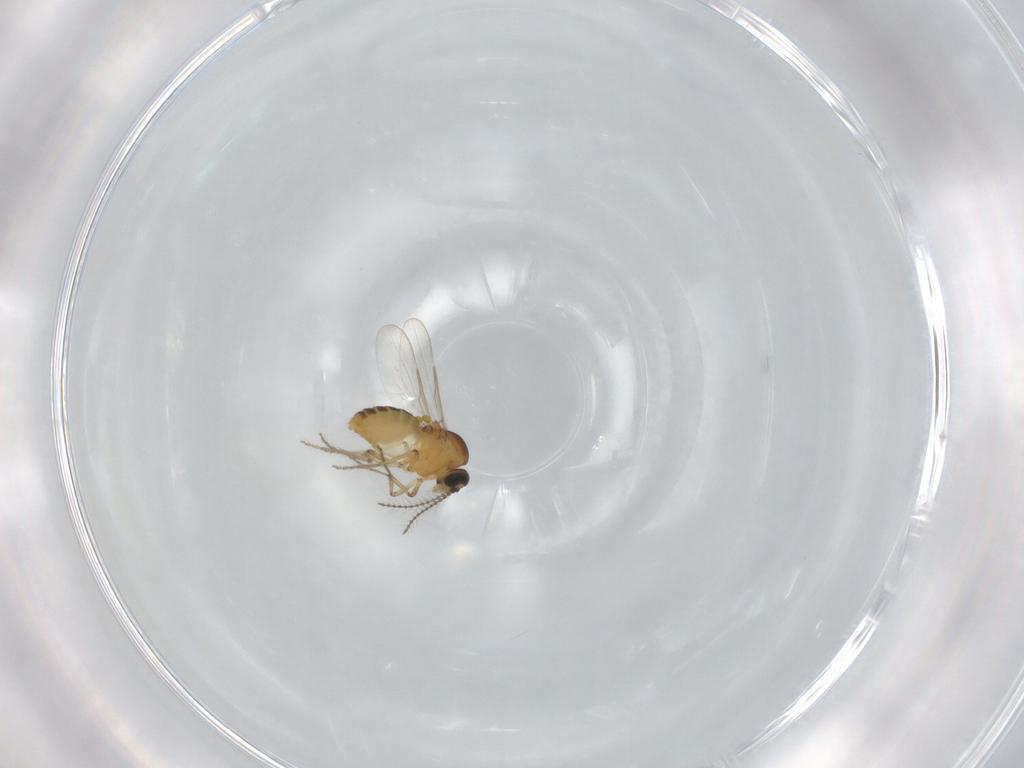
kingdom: Animalia
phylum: Arthropoda
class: Insecta
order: Diptera
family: Ceratopogonidae
